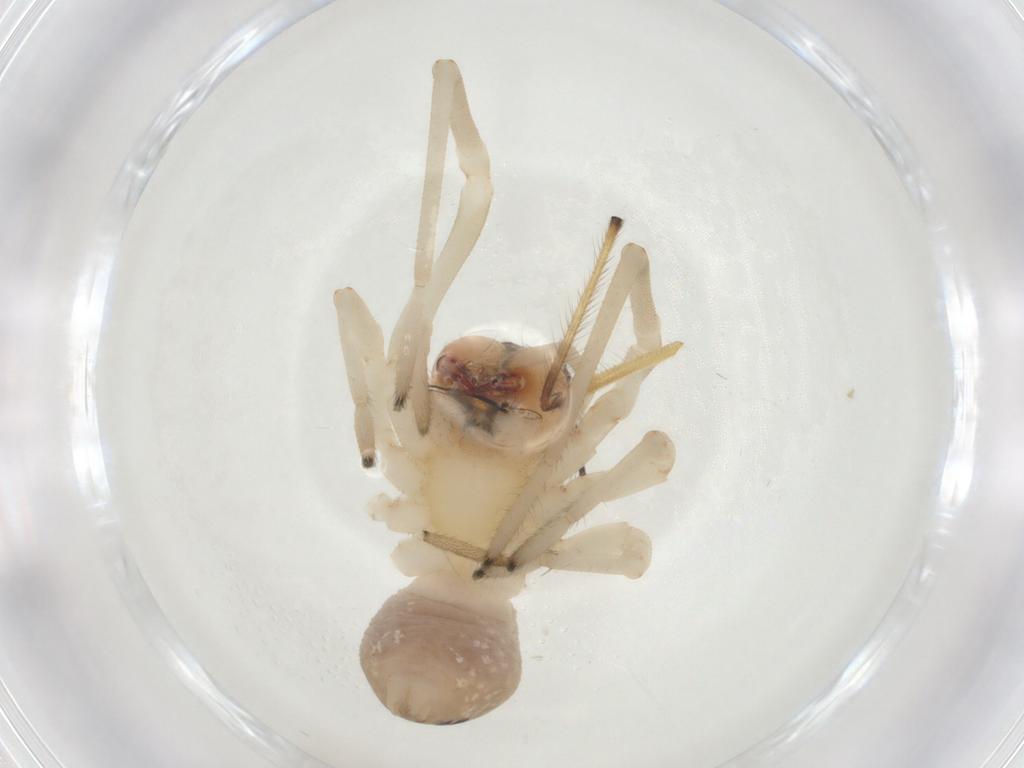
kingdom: Animalia
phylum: Arthropoda
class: Arachnida
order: Araneae
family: Cheiracanthiidae
